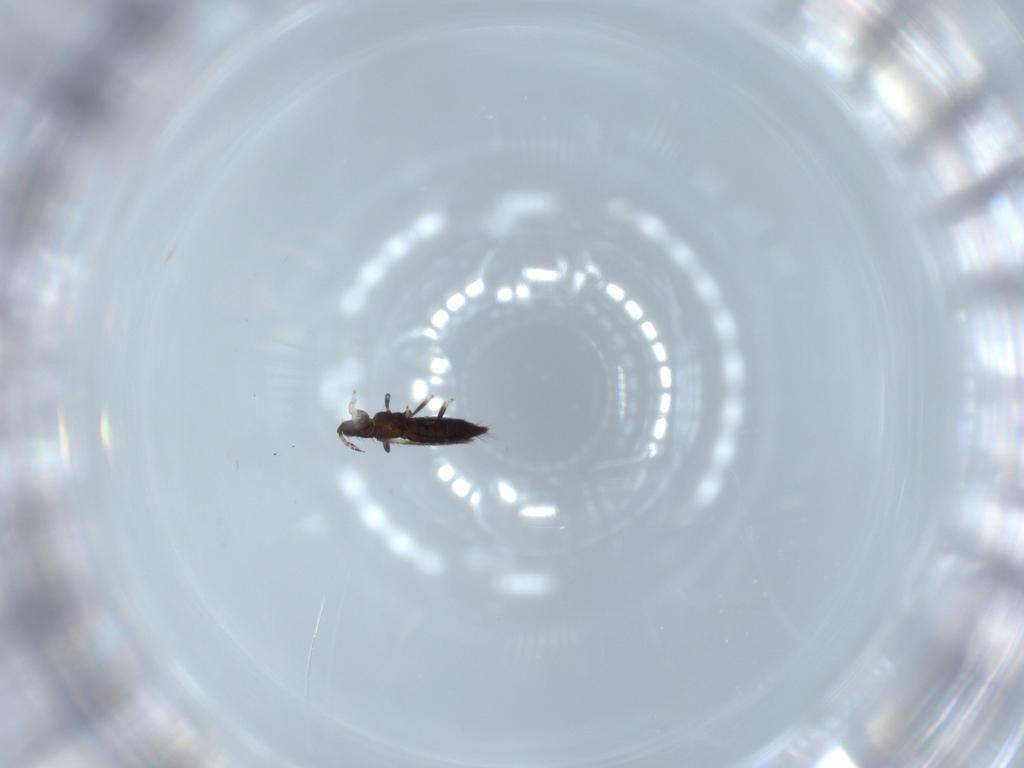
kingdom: Animalia
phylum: Arthropoda
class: Insecta
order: Thysanoptera
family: Thripidae
